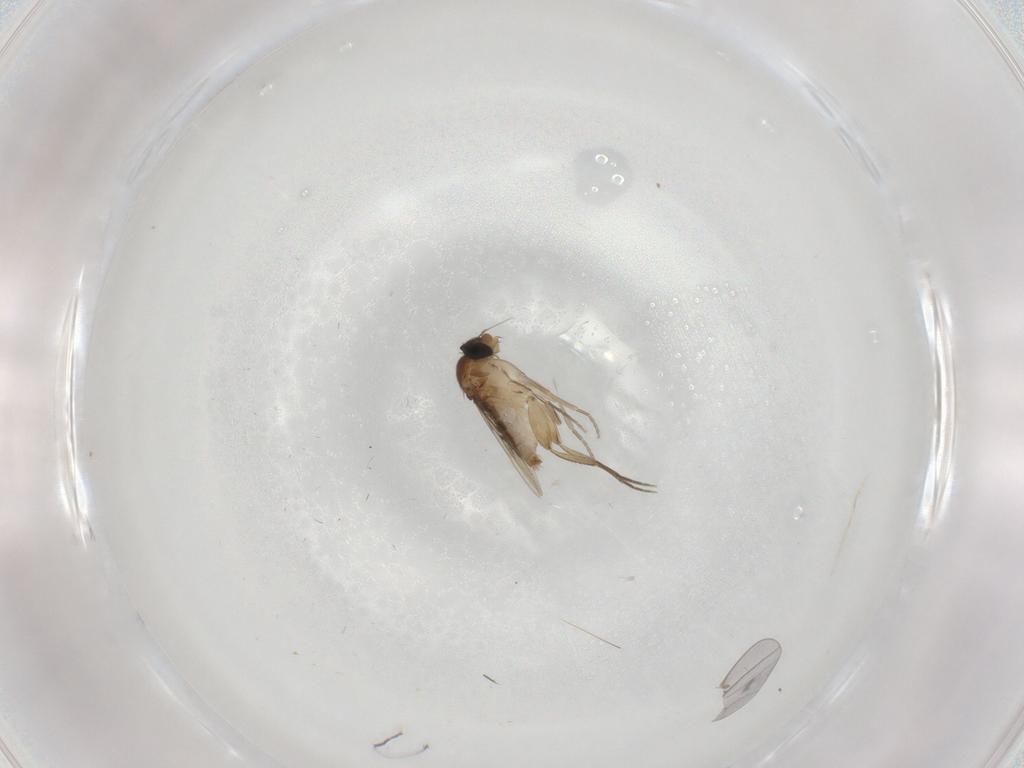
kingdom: Animalia
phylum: Arthropoda
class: Insecta
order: Diptera
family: Phoridae
